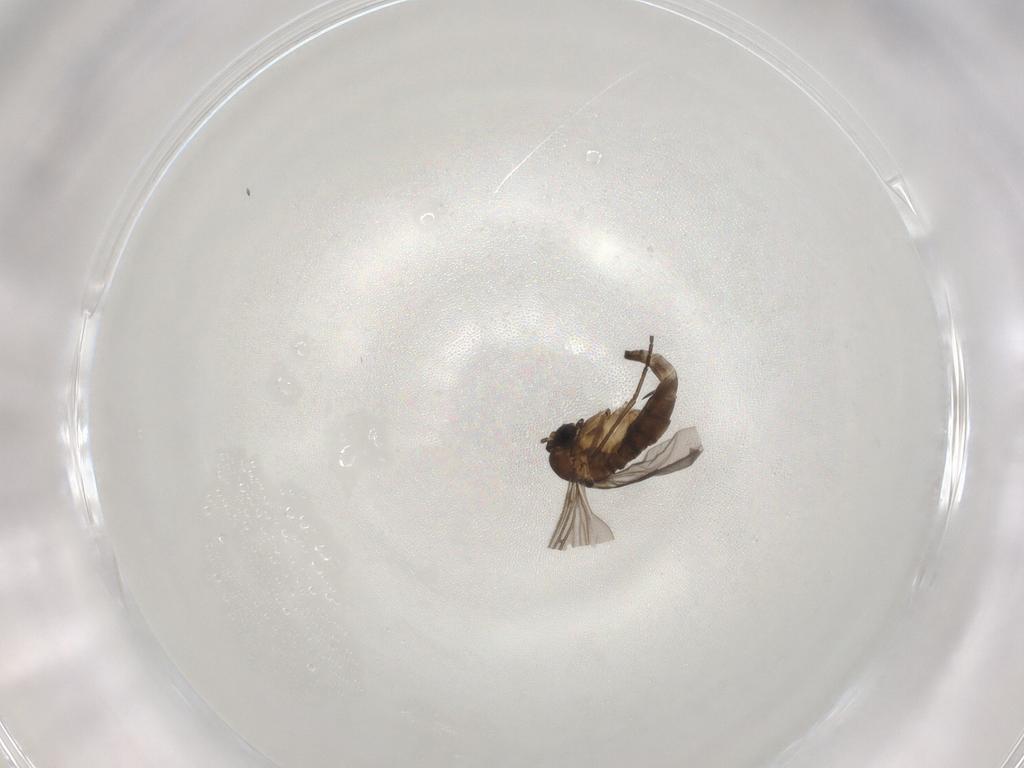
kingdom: Animalia
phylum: Arthropoda
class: Insecta
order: Diptera
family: Sciaridae
